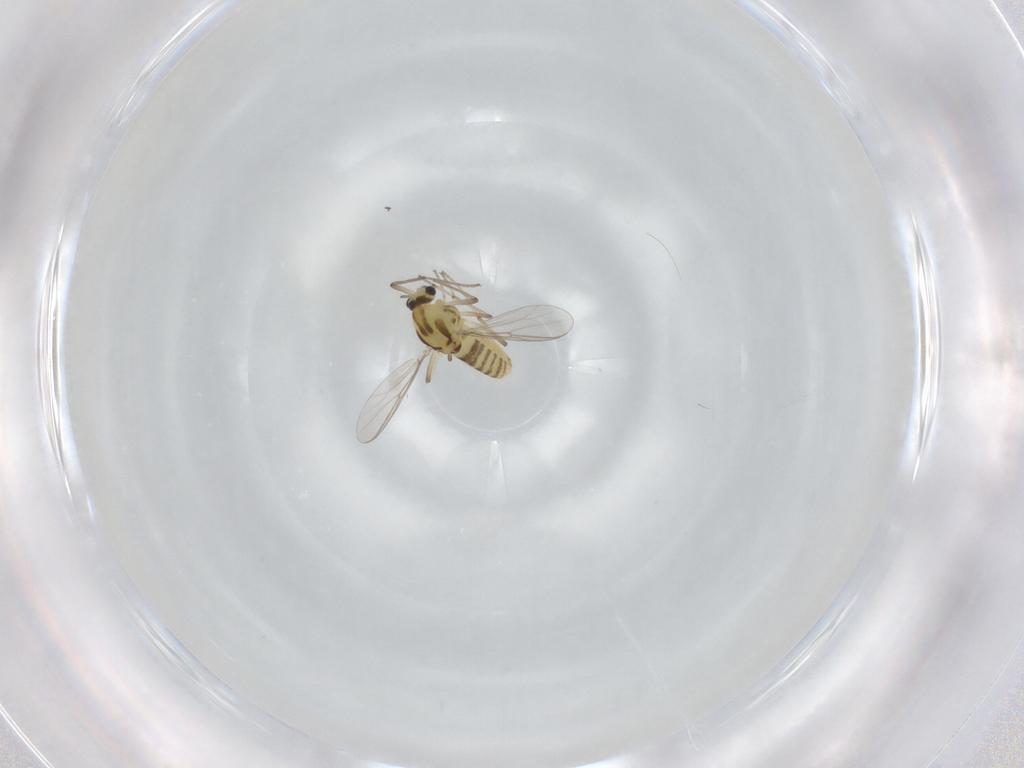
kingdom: Animalia
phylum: Arthropoda
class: Insecta
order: Diptera
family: Chironomidae
